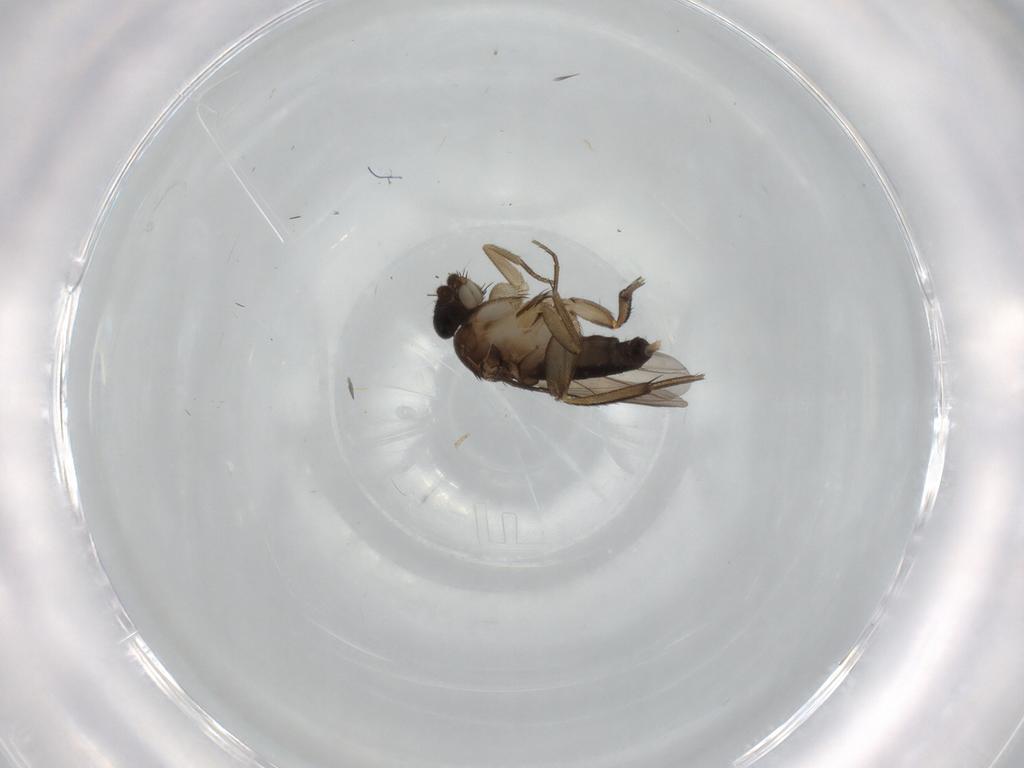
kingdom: Animalia
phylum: Arthropoda
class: Insecta
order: Diptera
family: Phoridae
